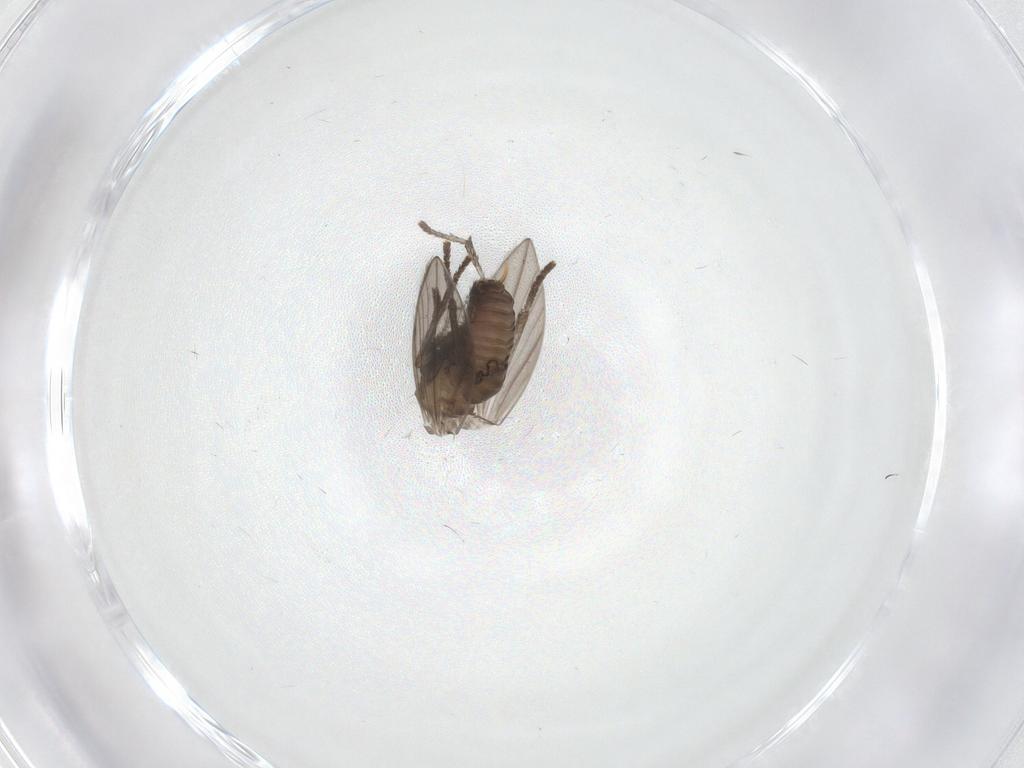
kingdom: Animalia
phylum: Arthropoda
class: Insecta
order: Diptera
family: Psychodidae
